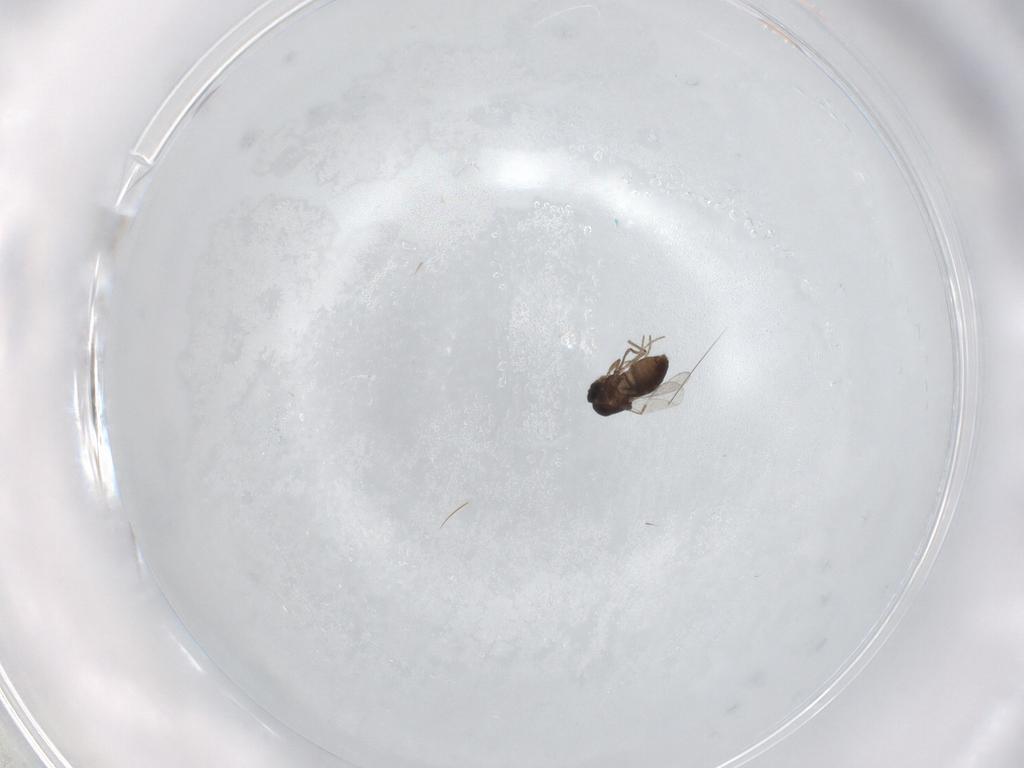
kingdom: Animalia
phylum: Arthropoda
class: Insecta
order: Diptera
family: Ceratopogonidae
